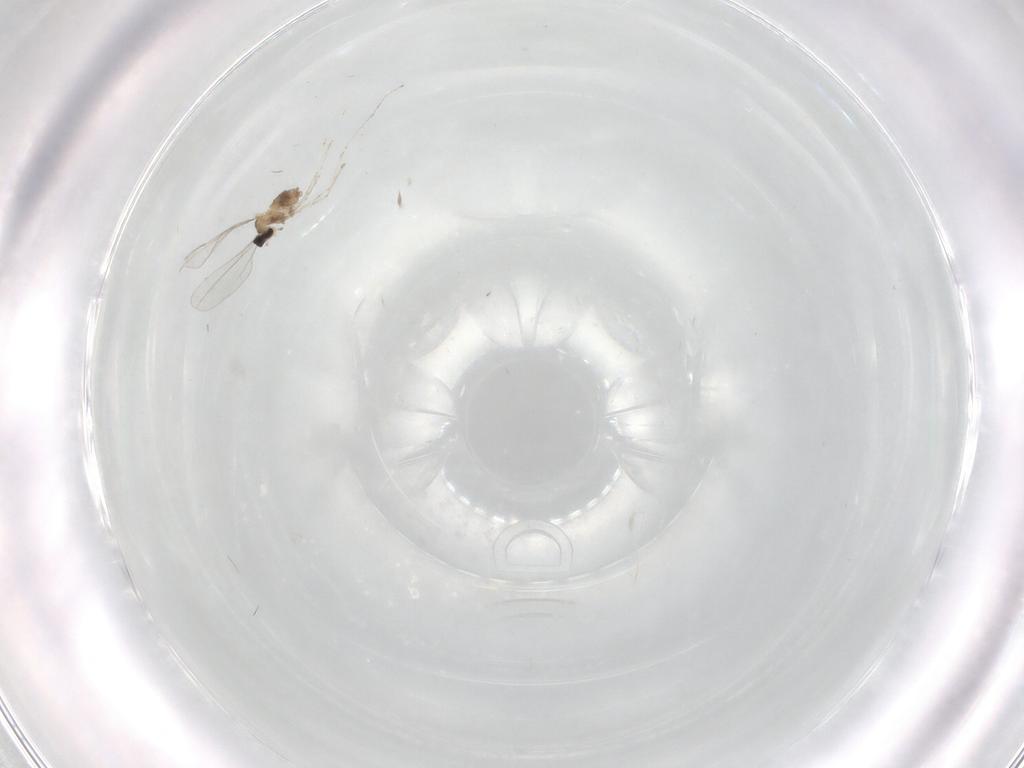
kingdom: Animalia
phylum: Arthropoda
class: Insecta
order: Diptera
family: Cecidomyiidae
